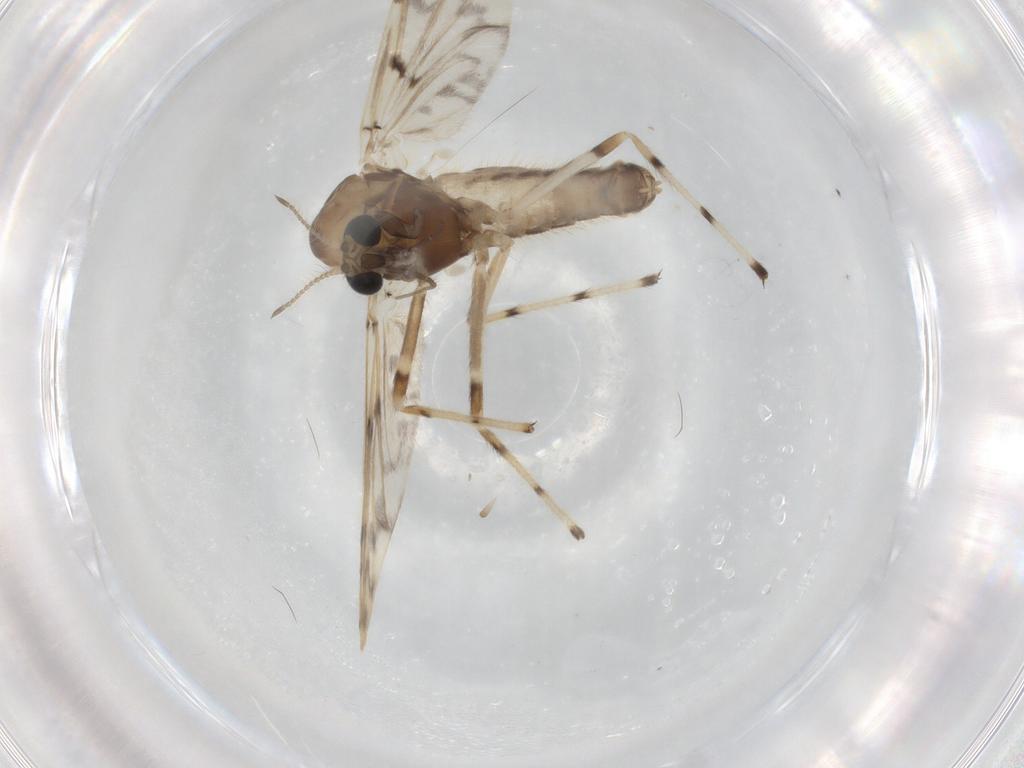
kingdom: Animalia
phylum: Arthropoda
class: Insecta
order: Diptera
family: Chironomidae
